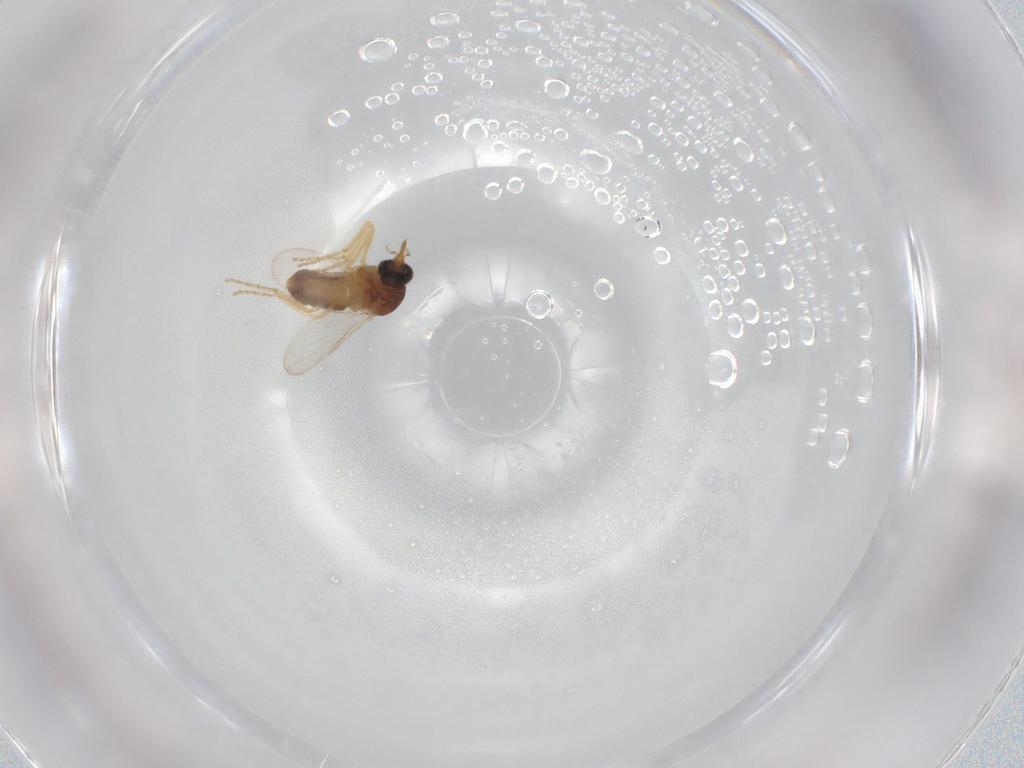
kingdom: Animalia
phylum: Arthropoda
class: Insecta
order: Diptera
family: Ceratopogonidae
